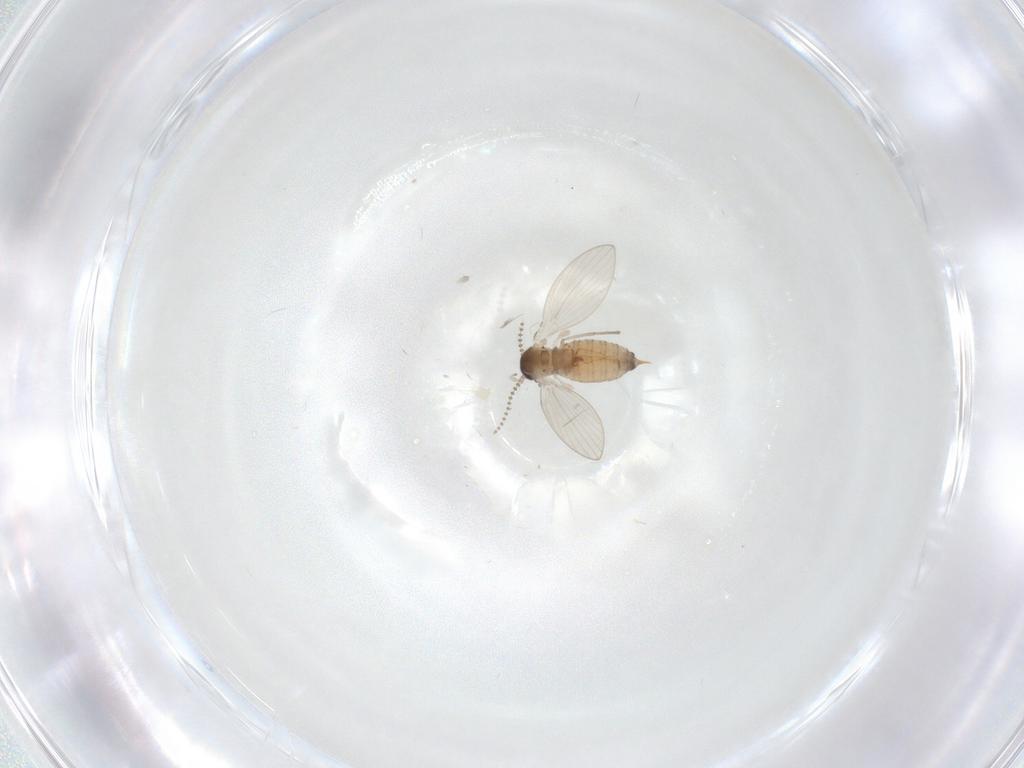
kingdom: Animalia
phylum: Arthropoda
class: Insecta
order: Diptera
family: Psychodidae
